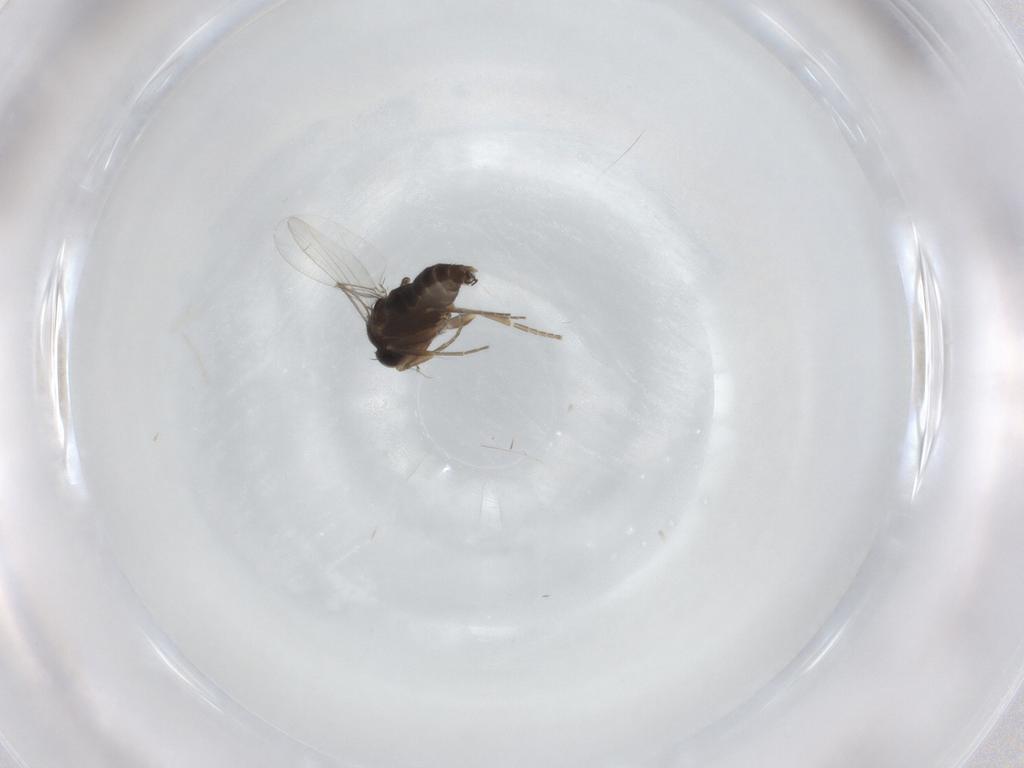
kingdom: Animalia
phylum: Arthropoda
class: Insecta
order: Diptera
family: Phoridae
